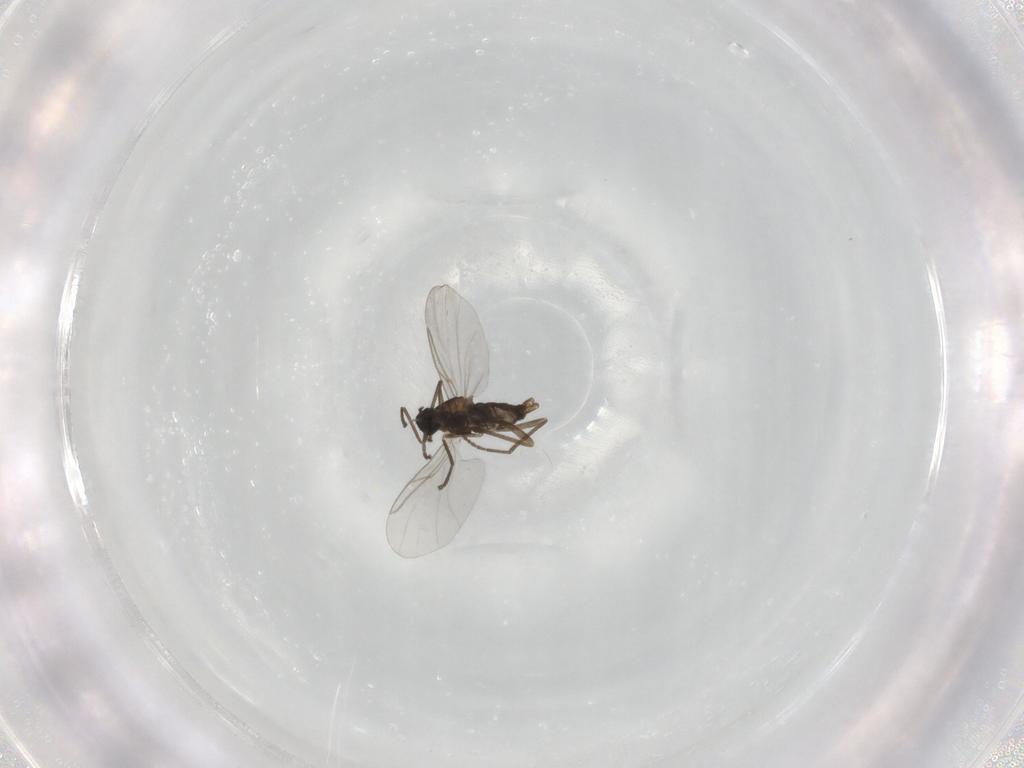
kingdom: Animalia
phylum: Arthropoda
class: Insecta
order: Diptera
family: Cecidomyiidae
